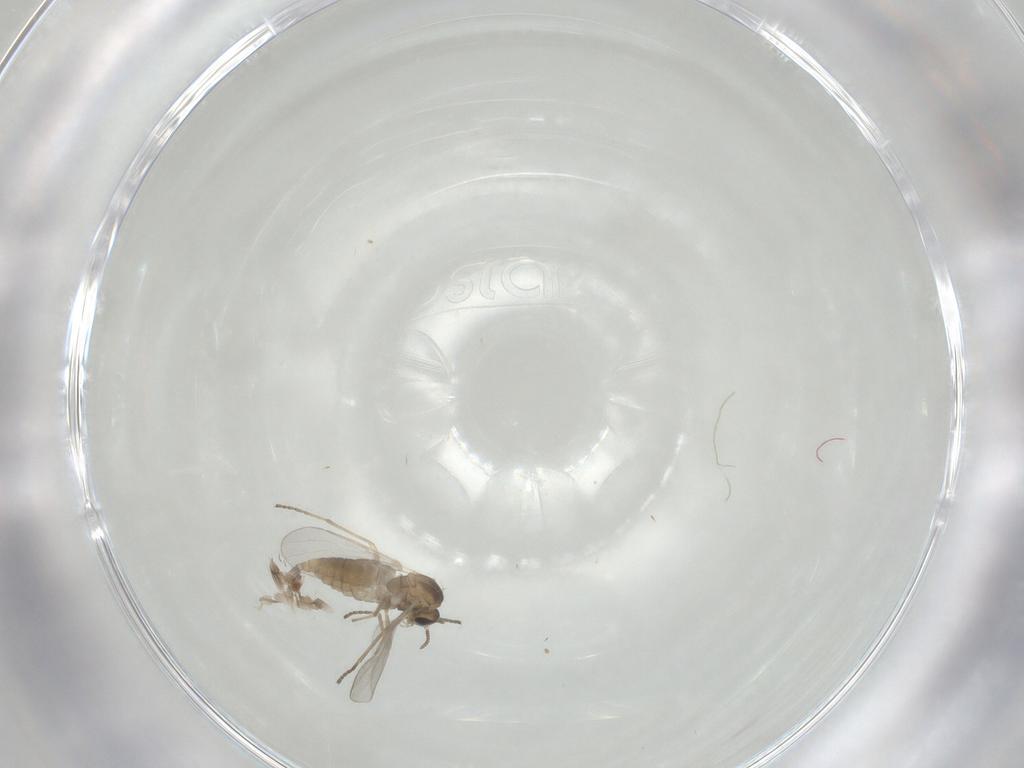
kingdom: Animalia
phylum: Arthropoda
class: Insecta
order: Diptera
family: Cecidomyiidae
